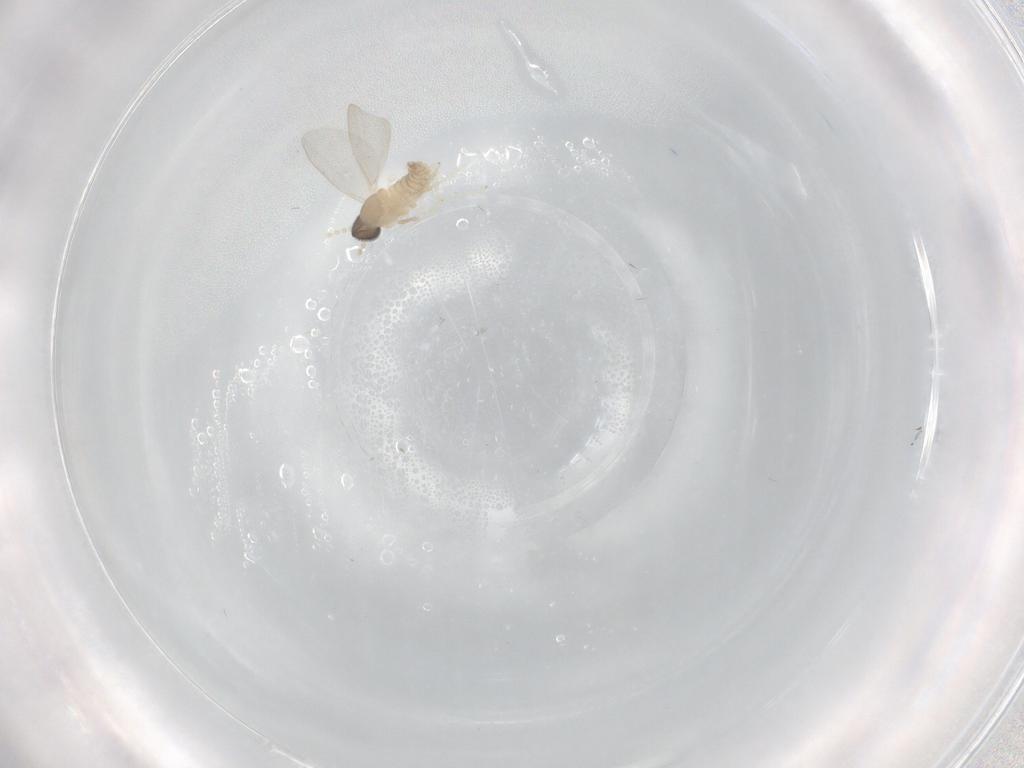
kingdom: Animalia
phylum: Arthropoda
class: Insecta
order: Diptera
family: Cecidomyiidae
